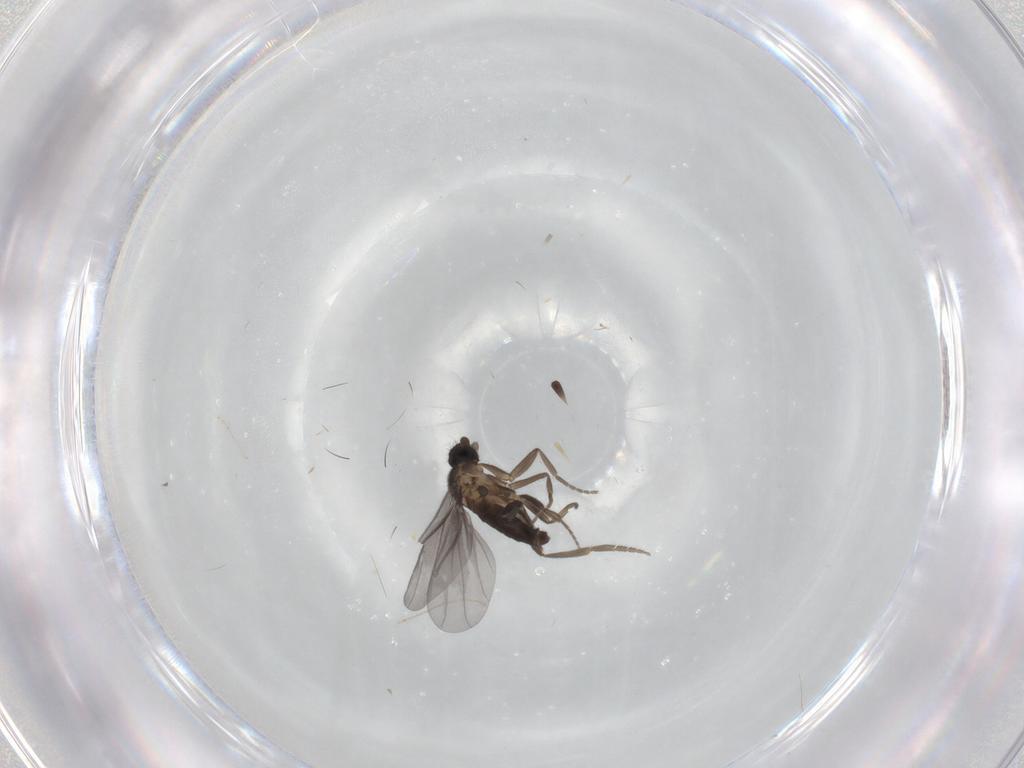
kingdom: Animalia
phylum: Arthropoda
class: Insecta
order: Diptera
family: Cecidomyiidae
